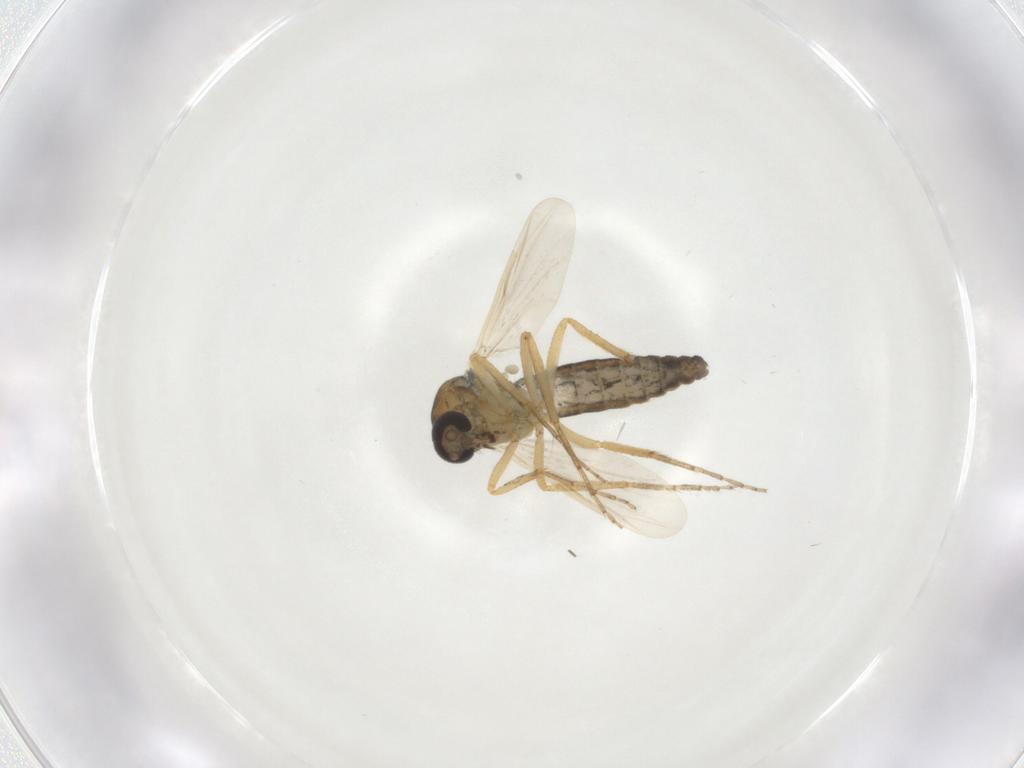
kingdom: Animalia
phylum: Arthropoda
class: Insecta
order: Diptera
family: Ceratopogonidae
